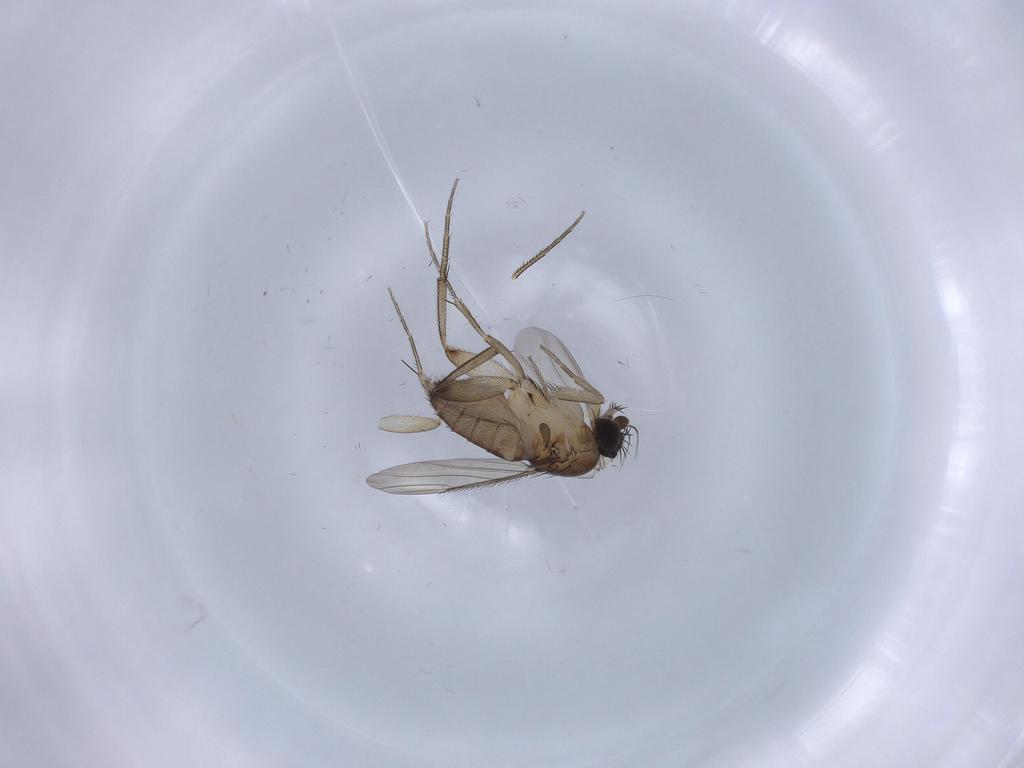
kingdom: Animalia
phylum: Arthropoda
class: Insecta
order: Diptera
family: Phoridae
